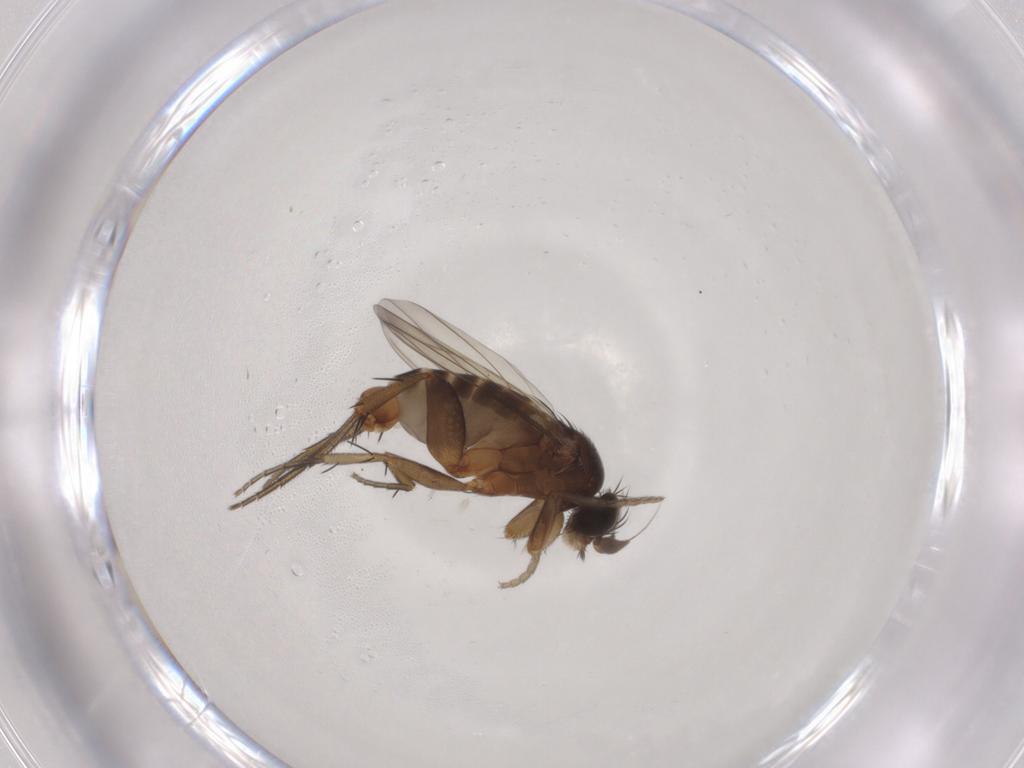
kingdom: Animalia
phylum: Arthropoda
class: Insecta
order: Diptera
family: Phoridae
